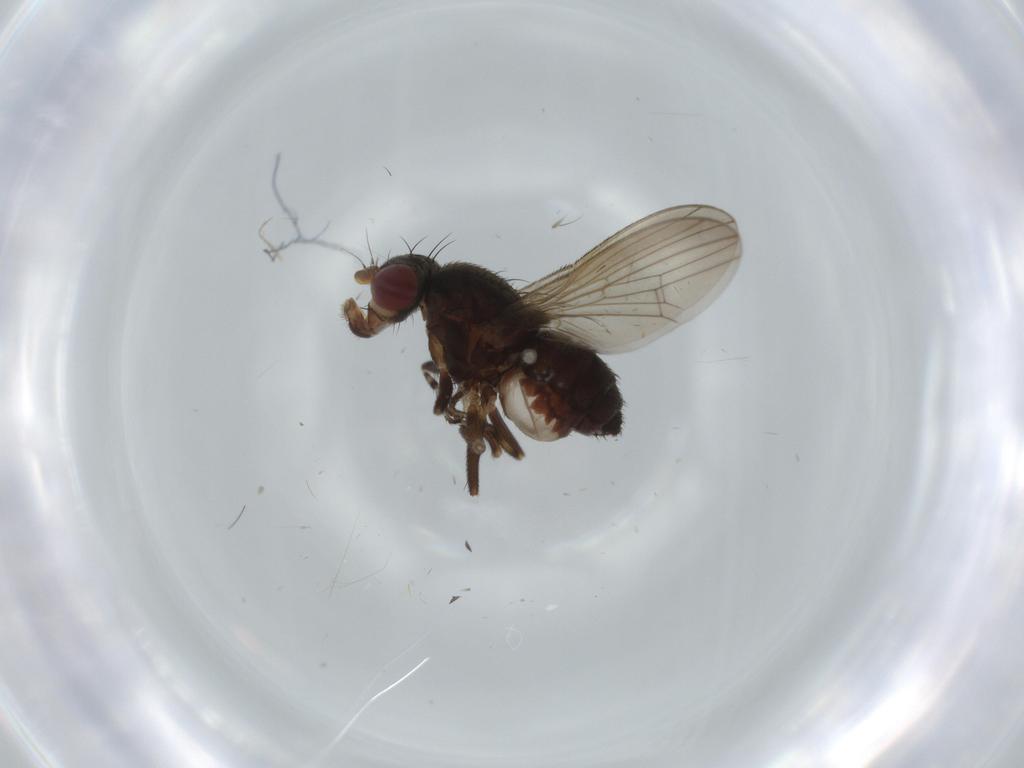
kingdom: Animalia
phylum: Arthropoda
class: Insecta
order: Diptera
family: Heleomyzidae
